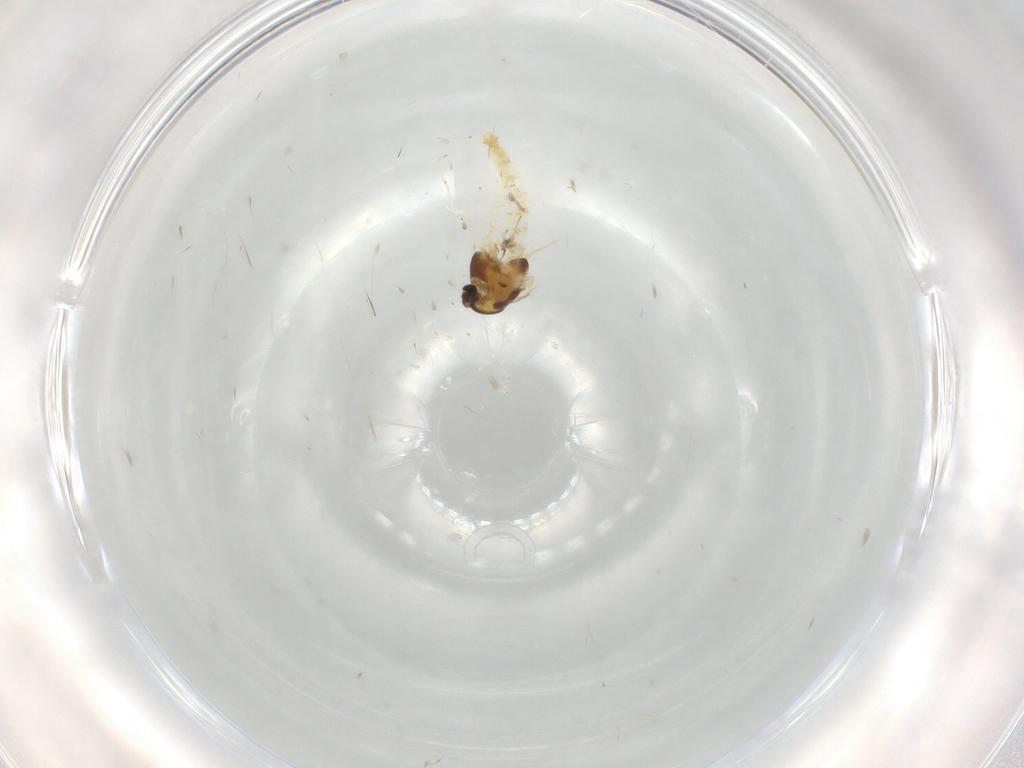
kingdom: Animalia
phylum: Arthropoda
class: Insecta
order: Diptera
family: Chironomidae
